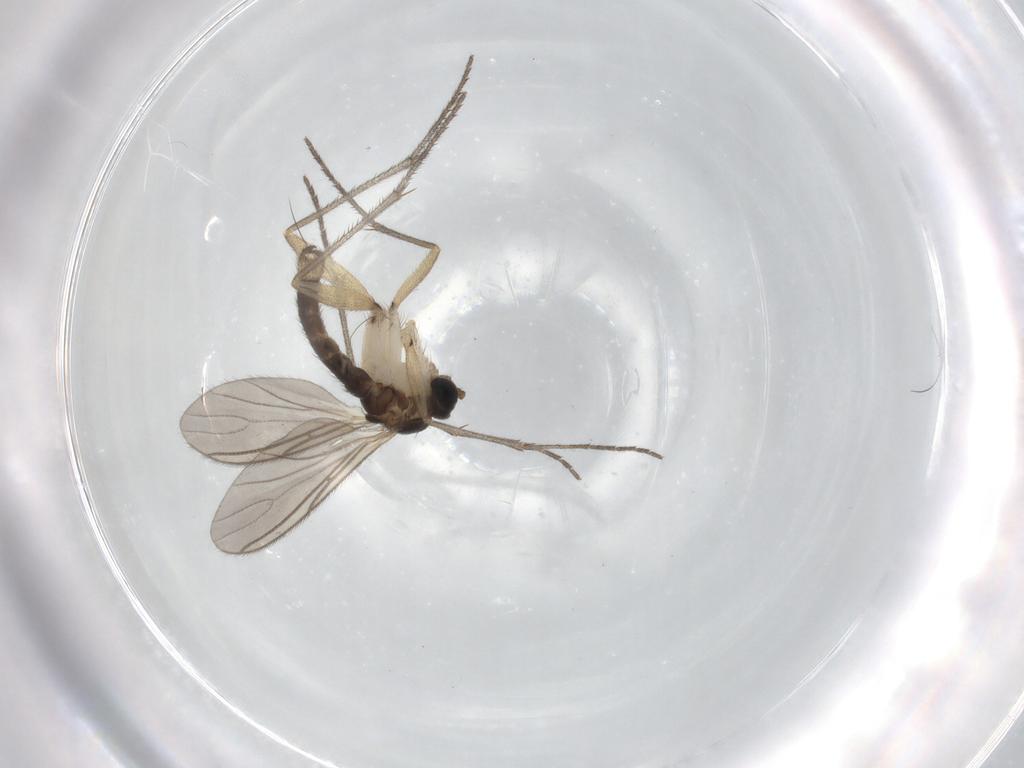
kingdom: Animalia
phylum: Arthropoda
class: Insecta
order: Diptera
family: Sciaridae
